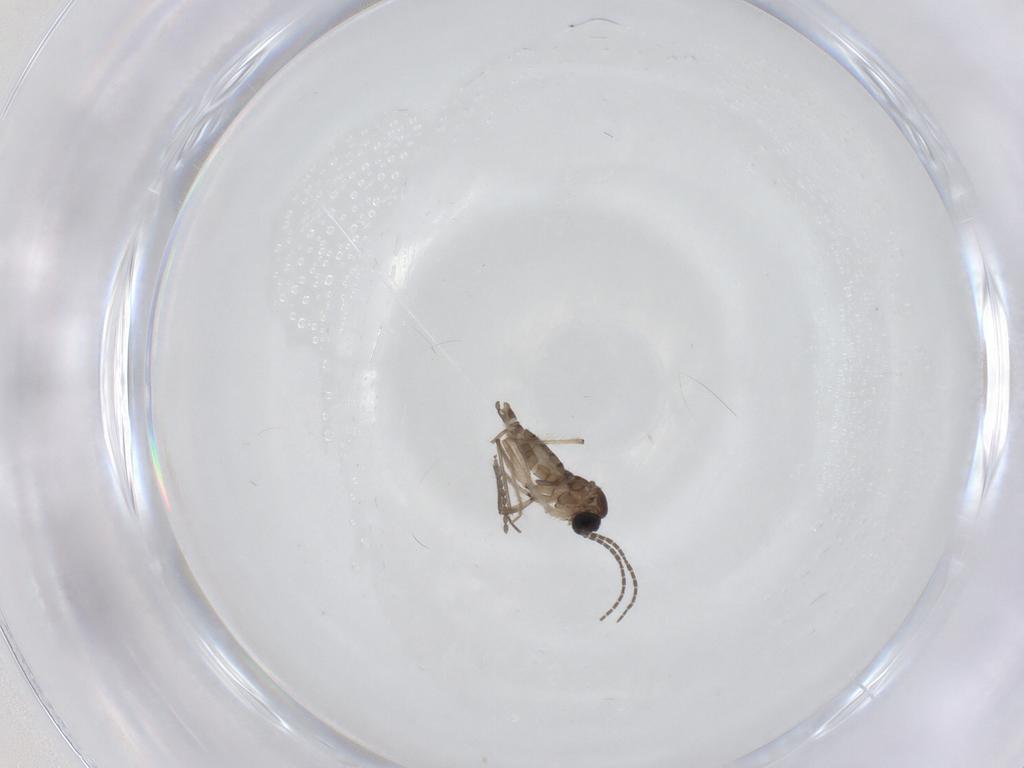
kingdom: Animalia
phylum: Arthropoda
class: Insecta
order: Diptera
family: Sciaridae
